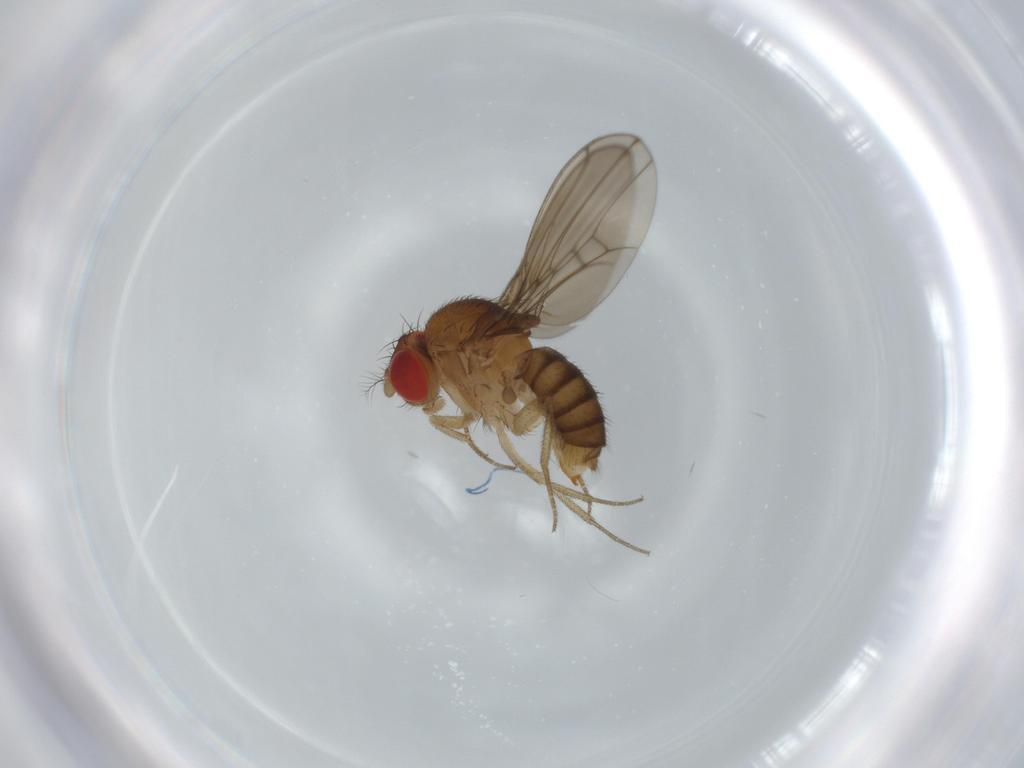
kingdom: Animalia
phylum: Arthropoda
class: Insecta
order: Diptera
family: Drosophilidae
